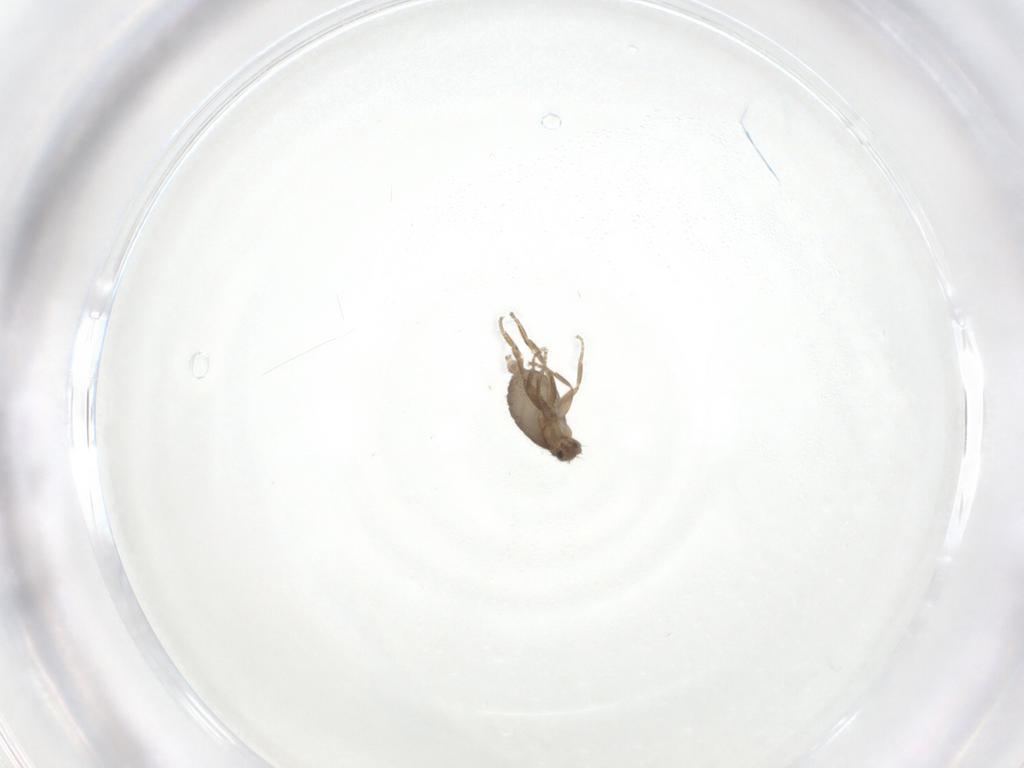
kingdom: Animalia
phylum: Arthropoda
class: Insecta
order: Diptera
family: Phoridae
